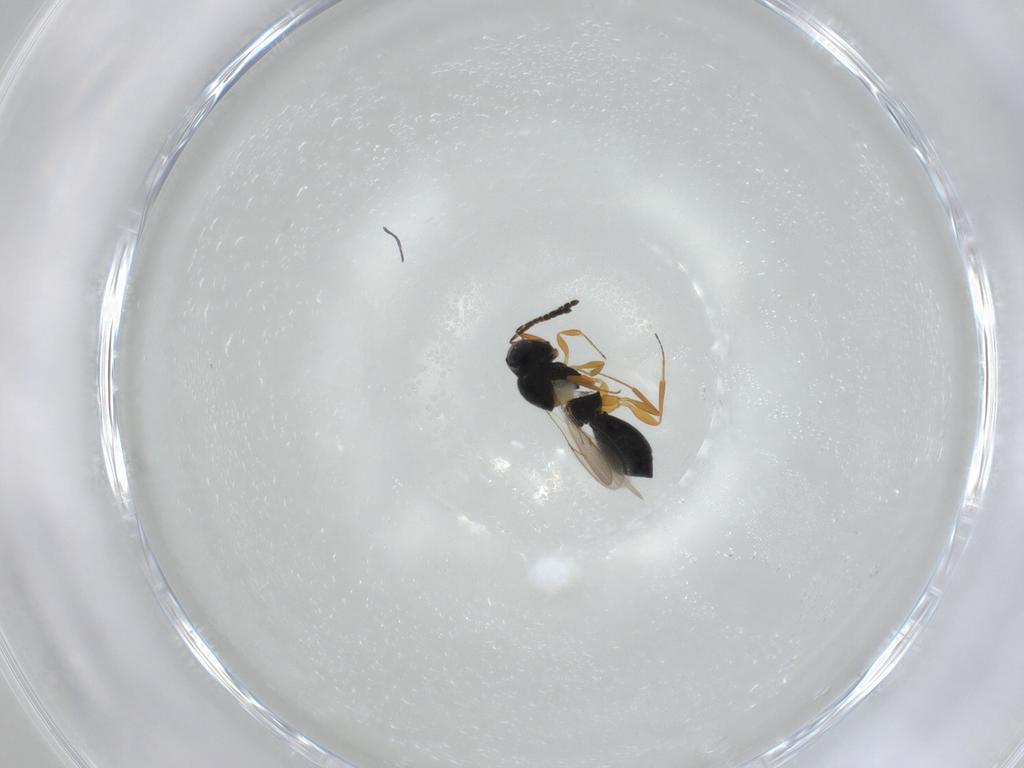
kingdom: Animalia
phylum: Arthropoda
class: Insecta
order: Hymenoptera
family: Scelionidae
